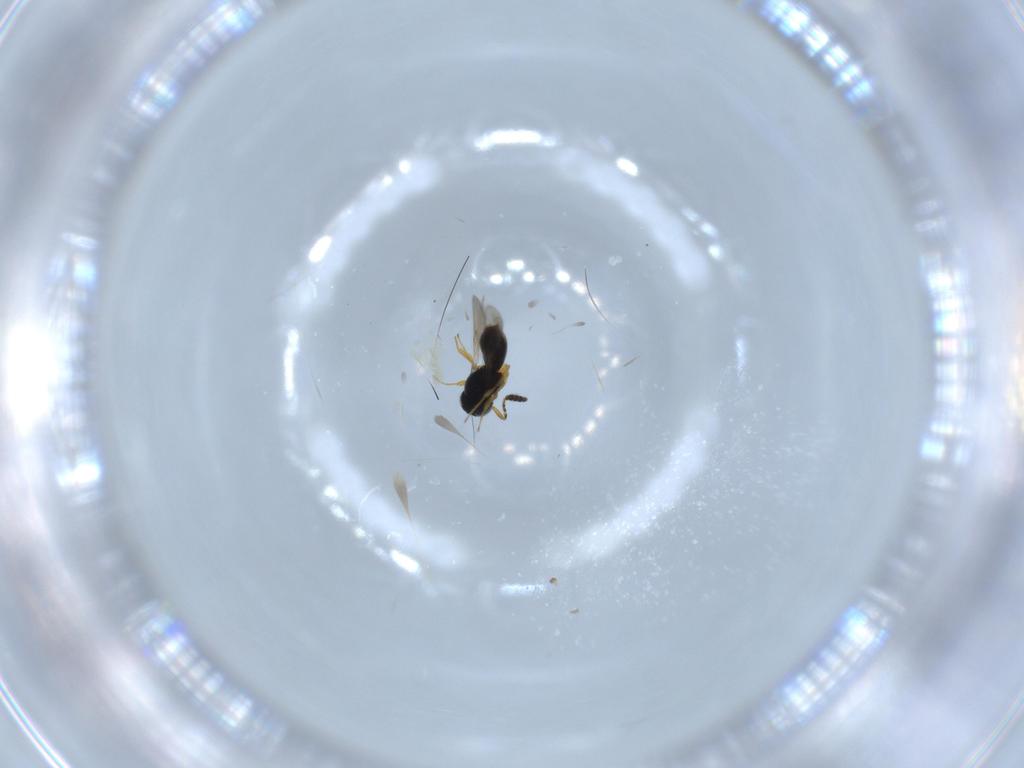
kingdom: Animalia
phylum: Arthropoda
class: Insecta
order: Hymenoptera
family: Scelionidae
